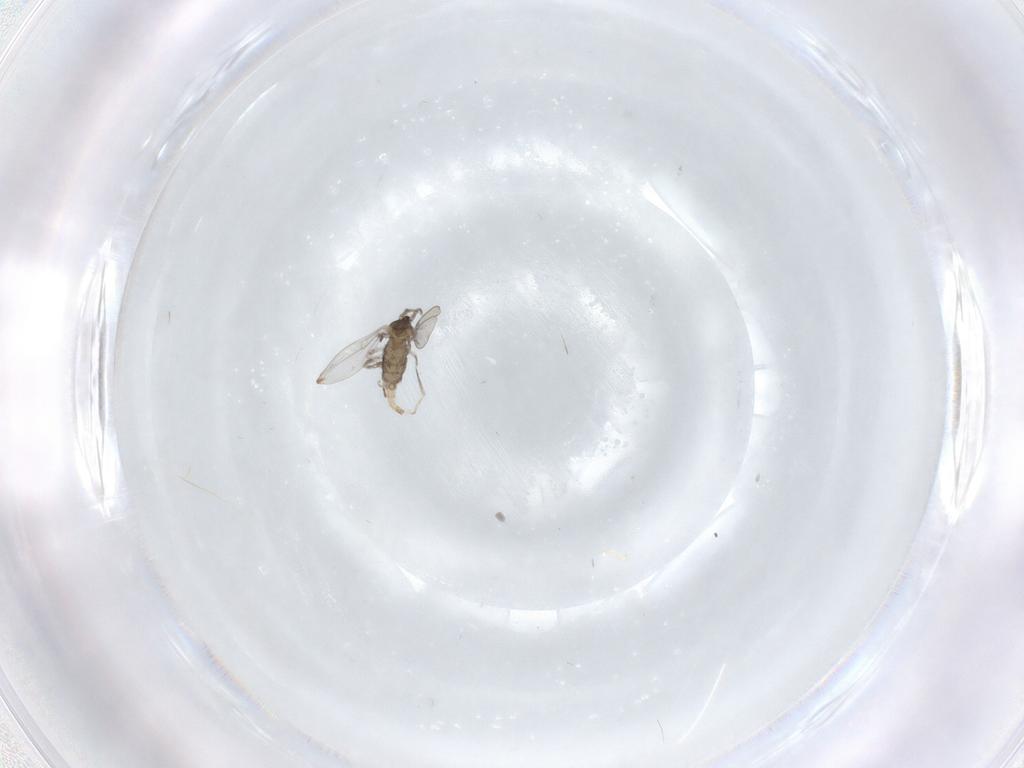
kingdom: Animalia
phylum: Arthropoda
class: Insecta
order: Diptera
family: Cecidomyiidae
